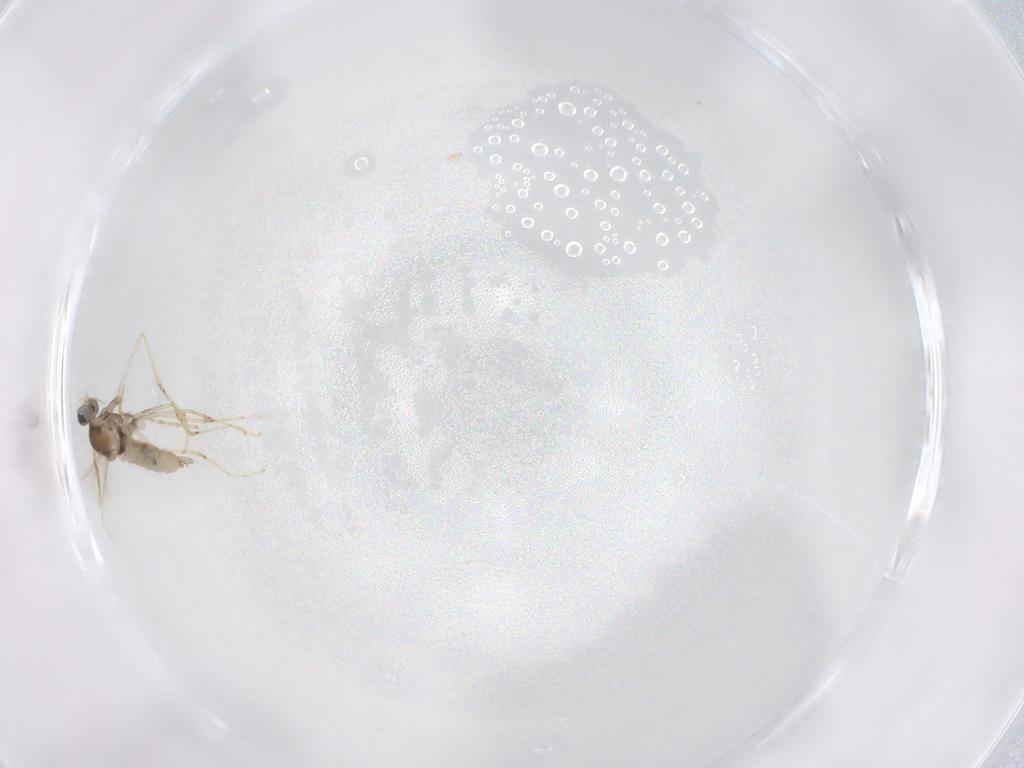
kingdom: Animalia
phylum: Arthropoda
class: Insecta
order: Diptera
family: Cecidomyiidae
